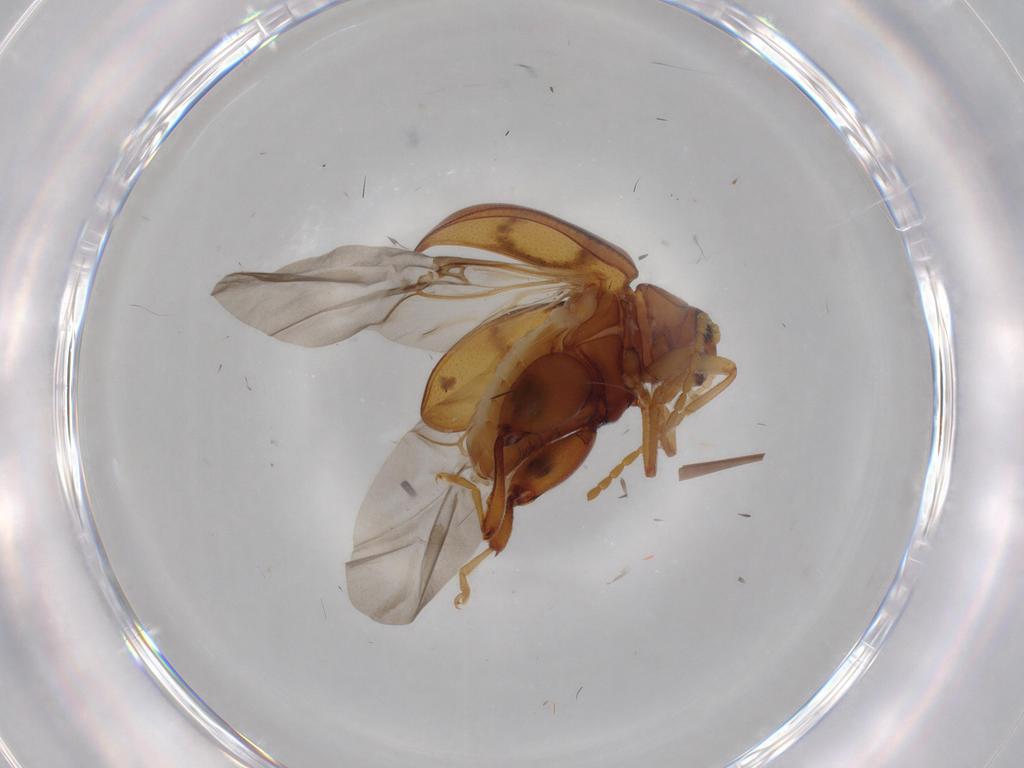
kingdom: Animalia
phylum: Arthropoda
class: Insecta
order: Coleoptera
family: Chrysomelidae
